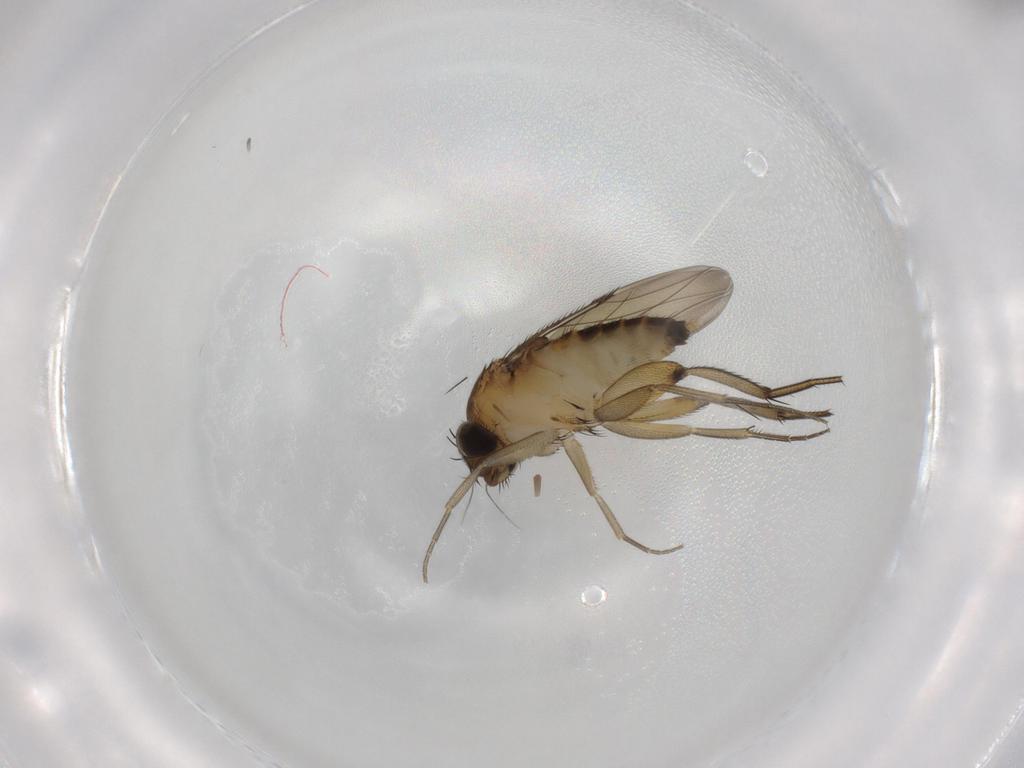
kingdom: Animalia
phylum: Arthropoda
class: Insecta
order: Diptera
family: Phoridae
